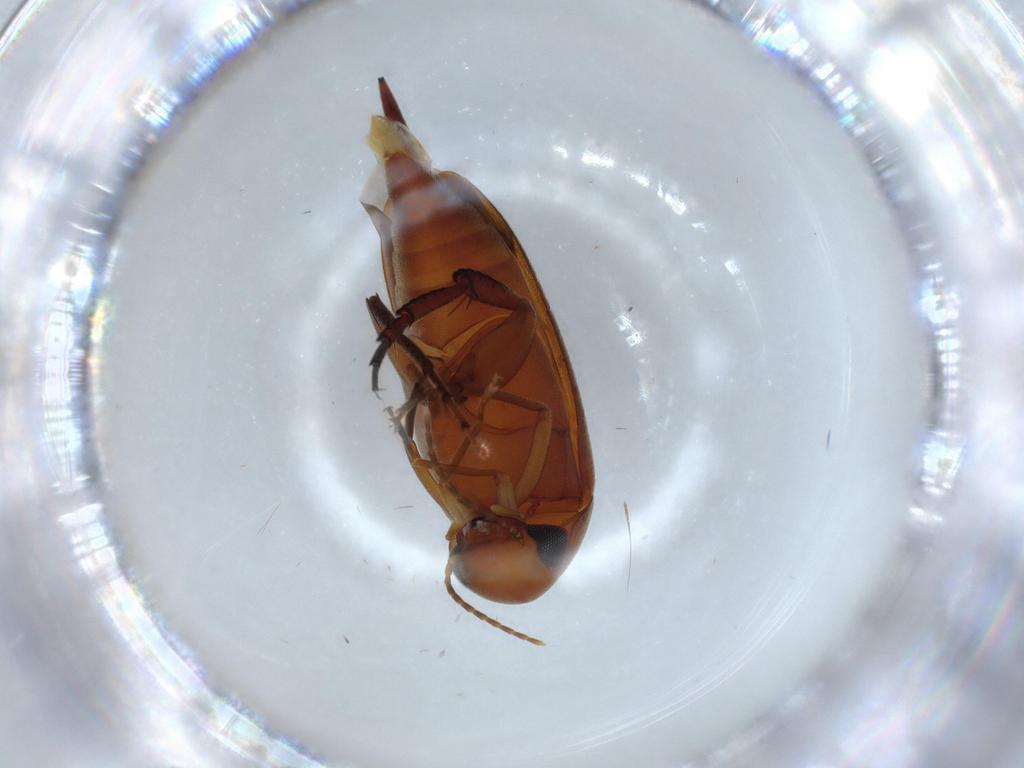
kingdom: Animalia
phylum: Arthropoda
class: Insecta
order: Coleoptera
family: Mordellidae
